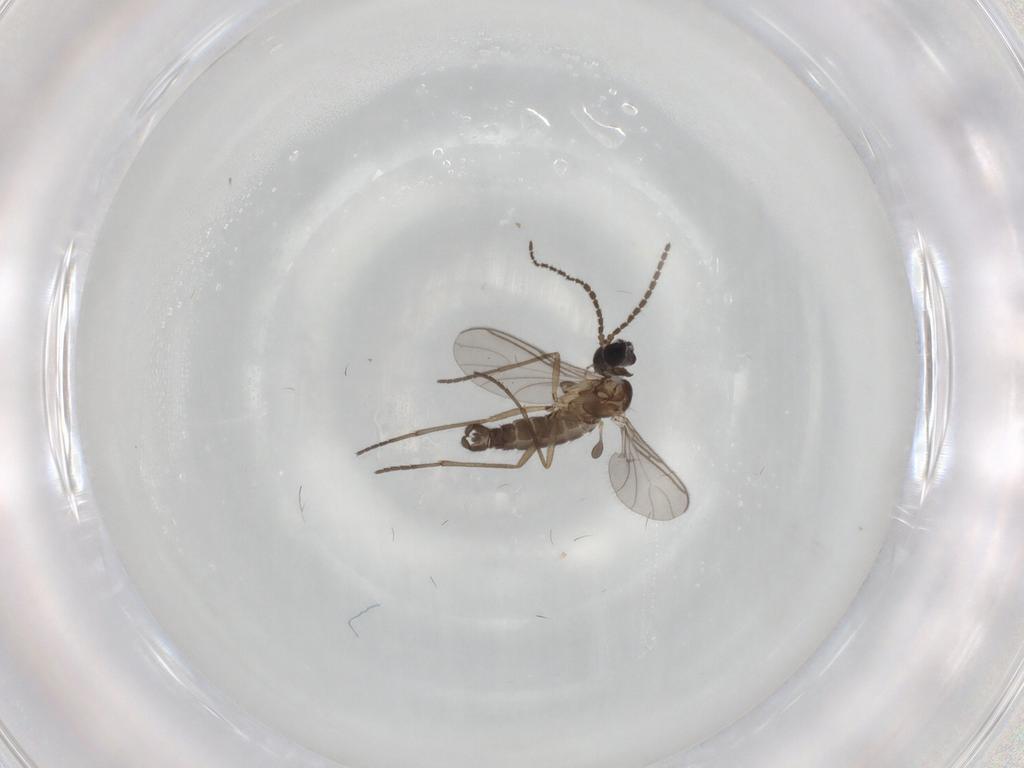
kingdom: Animalia
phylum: Arthropoda
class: Insecta
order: Diptera
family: Sciaridae
